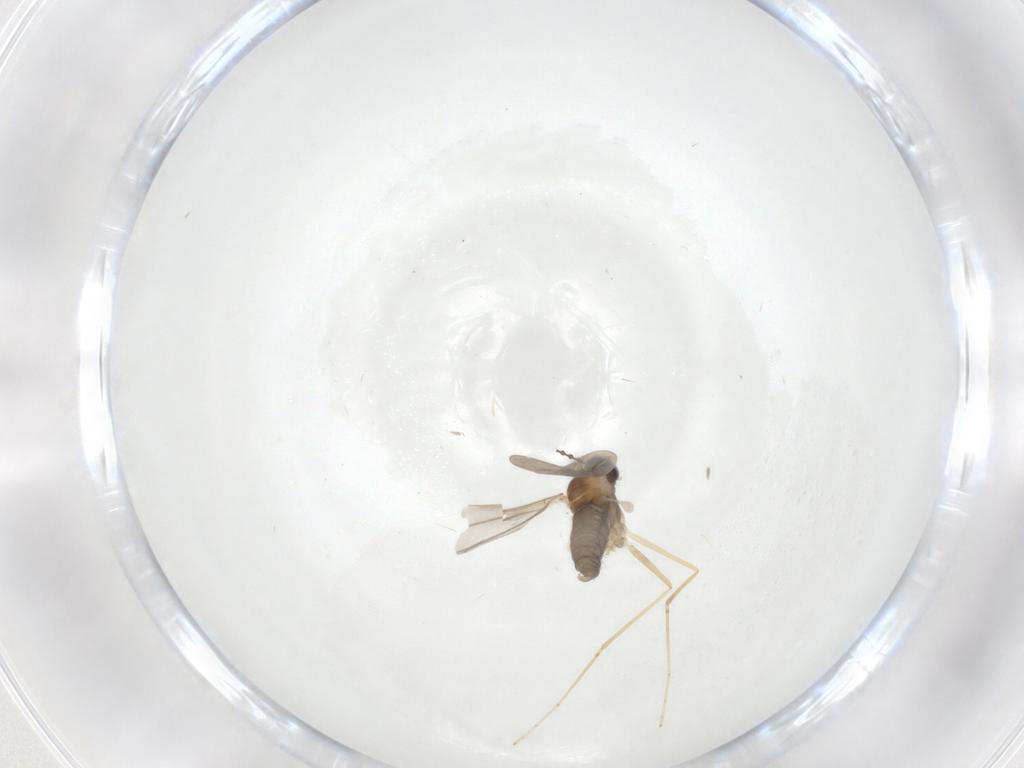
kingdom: Animalia
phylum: Arthropoda
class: Insecta
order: Diptera
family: Cecidomyiidae
